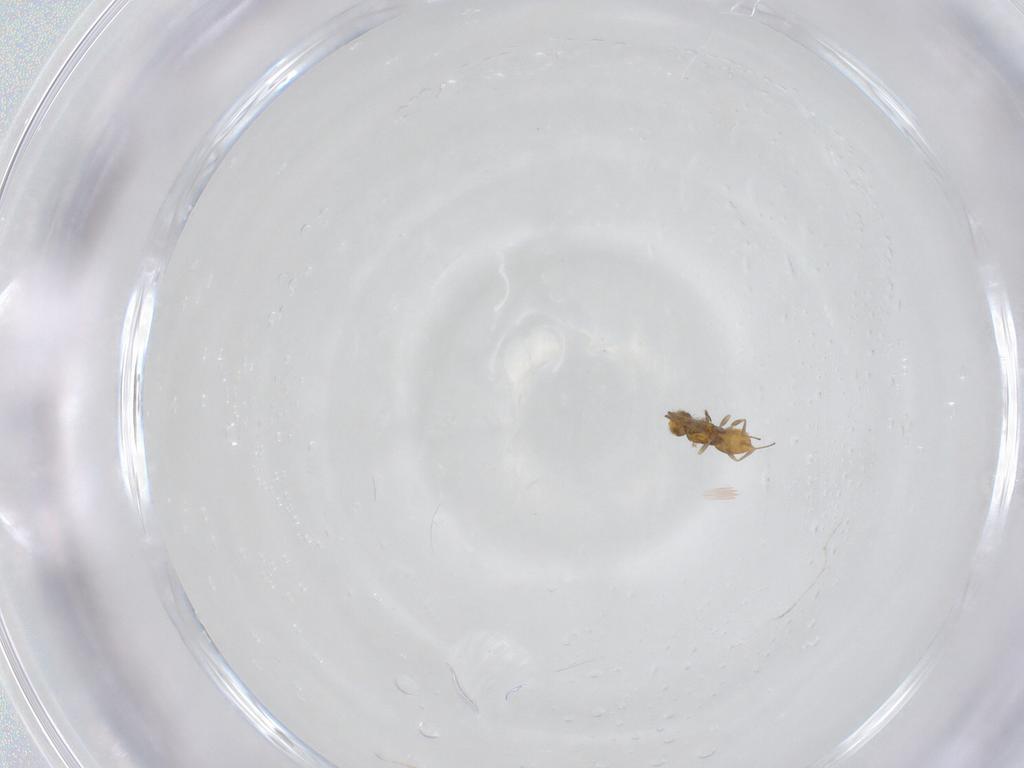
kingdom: Animalia
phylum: Arthropoda
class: Insecta
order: Hymenoptera
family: Aphelinidae
